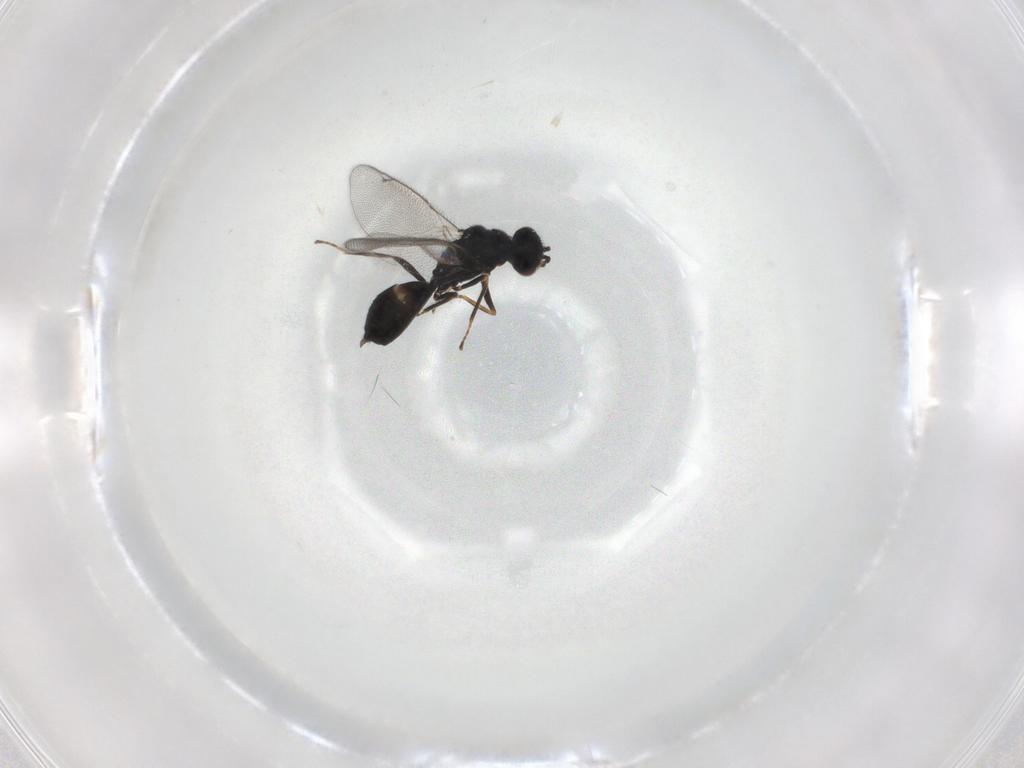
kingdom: Animalia
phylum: Arthropoda
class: Insecta
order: Hymenoptera
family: Eulophidae
